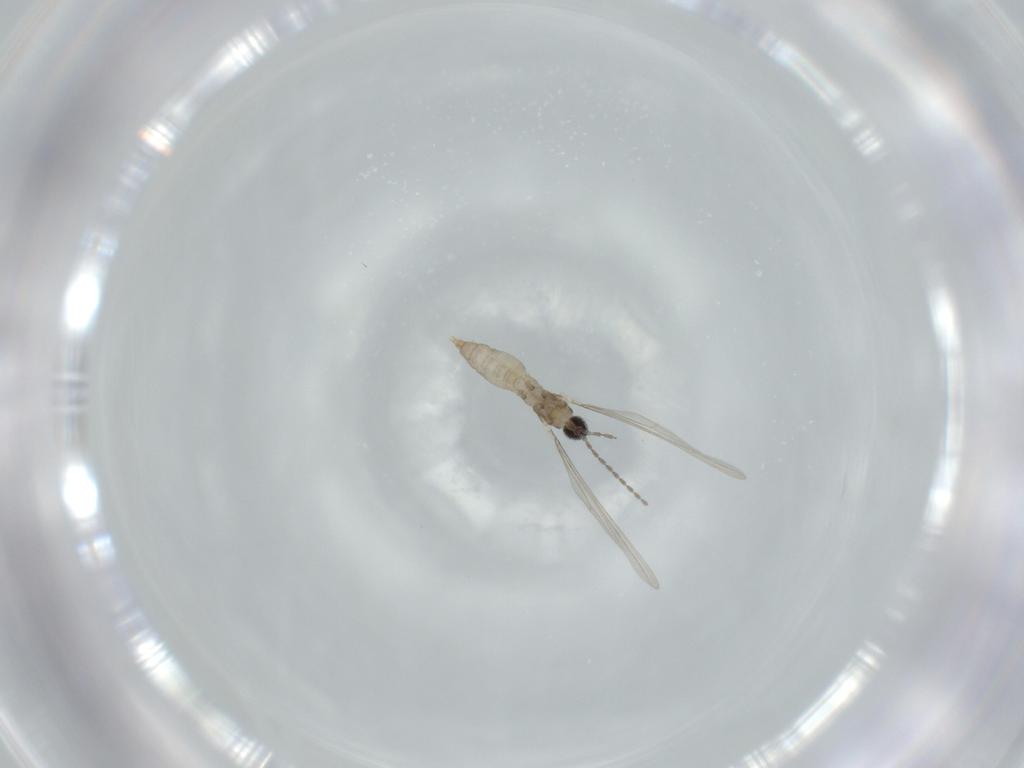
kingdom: Animalia
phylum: Arthropoda
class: Insecta
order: Diptera
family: Cecidomyiidae
